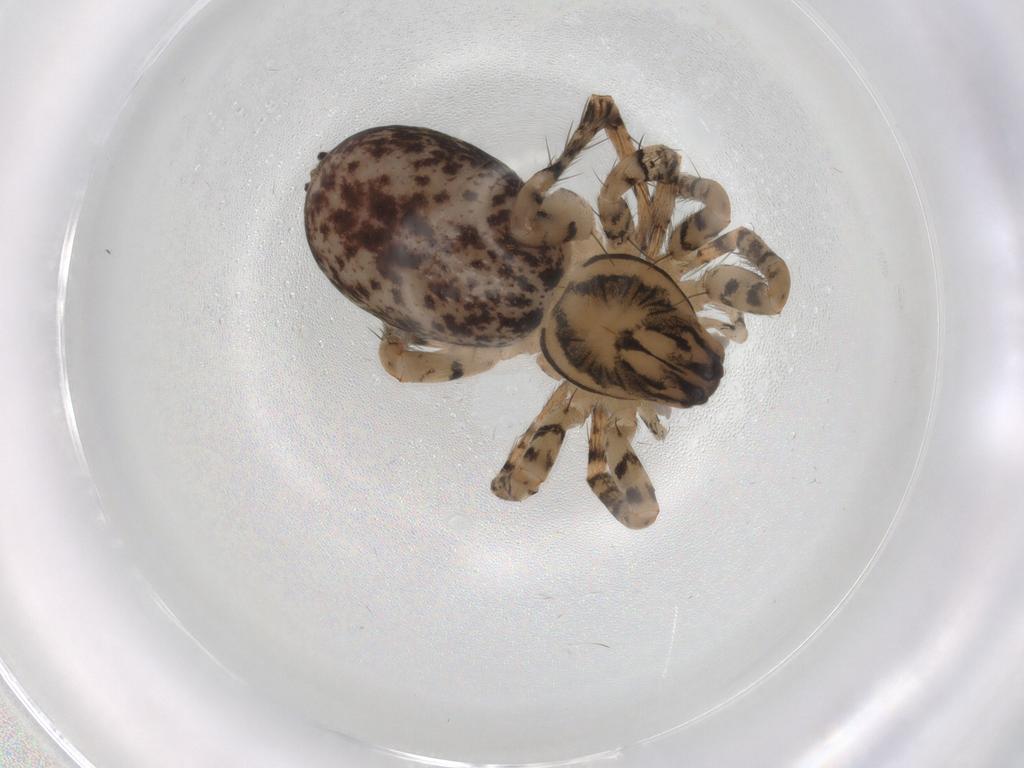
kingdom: Animalia
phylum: Arthropoda
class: Arachnida
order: Araneae
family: Anyphaenidae
